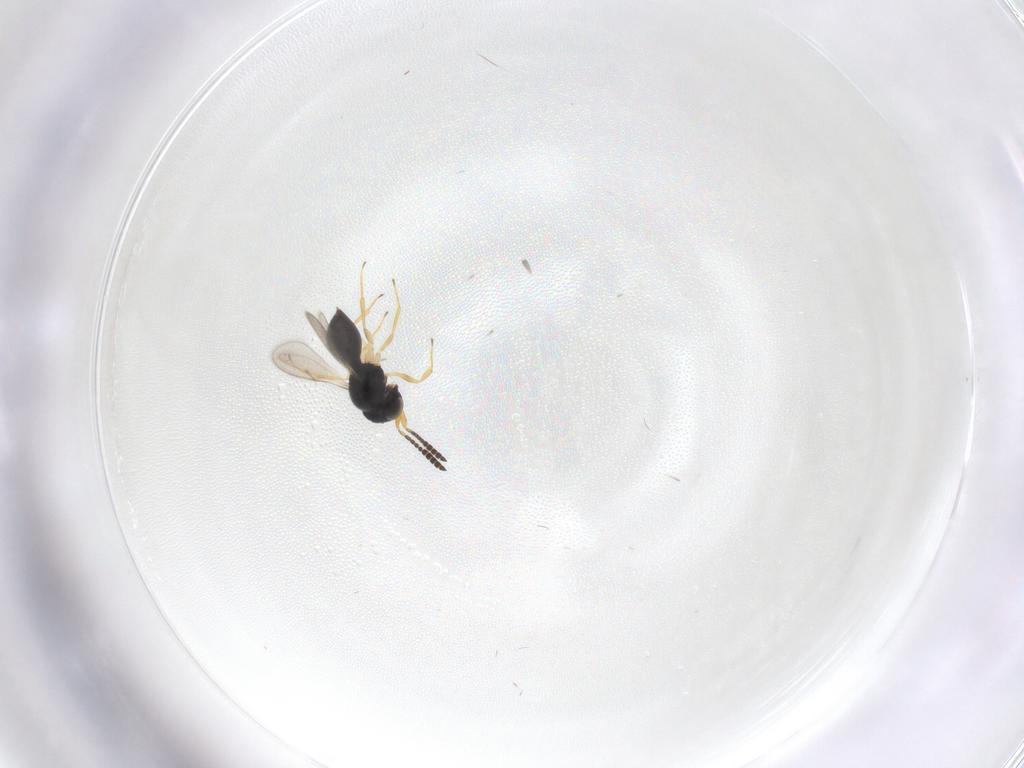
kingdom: Animalia
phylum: Arthropoda
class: Insecta
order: Hymenoptera
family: Scelionidae
